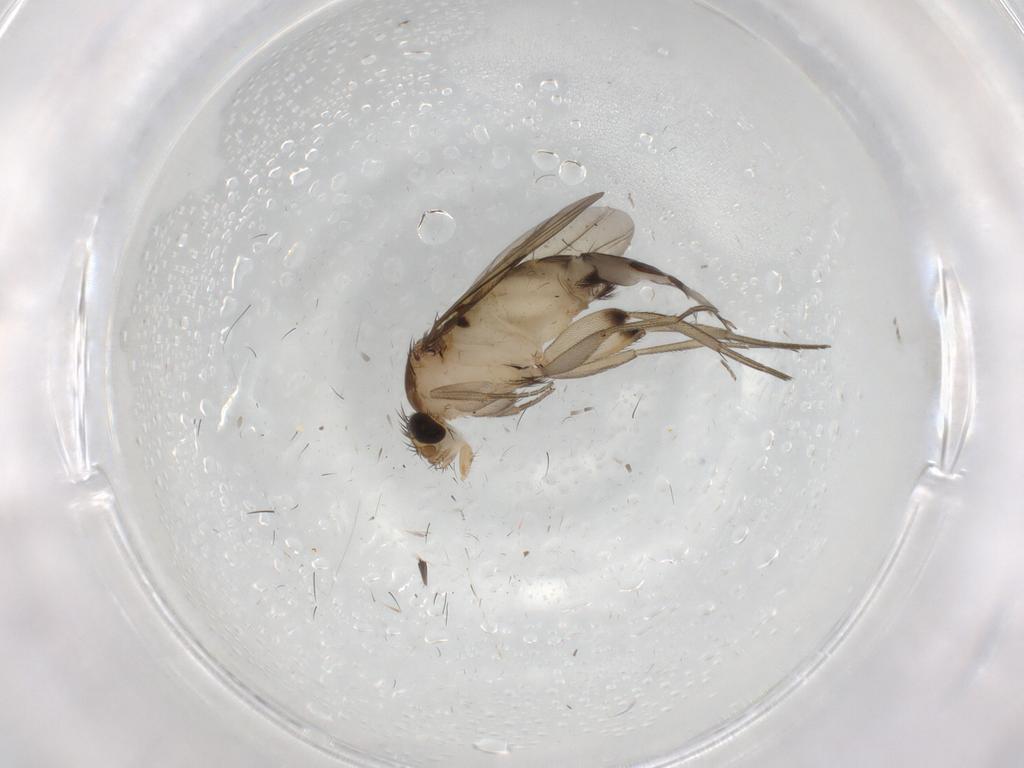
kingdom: Animalia
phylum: Arthropoda
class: Insecta
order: Diptera
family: Phoridae
